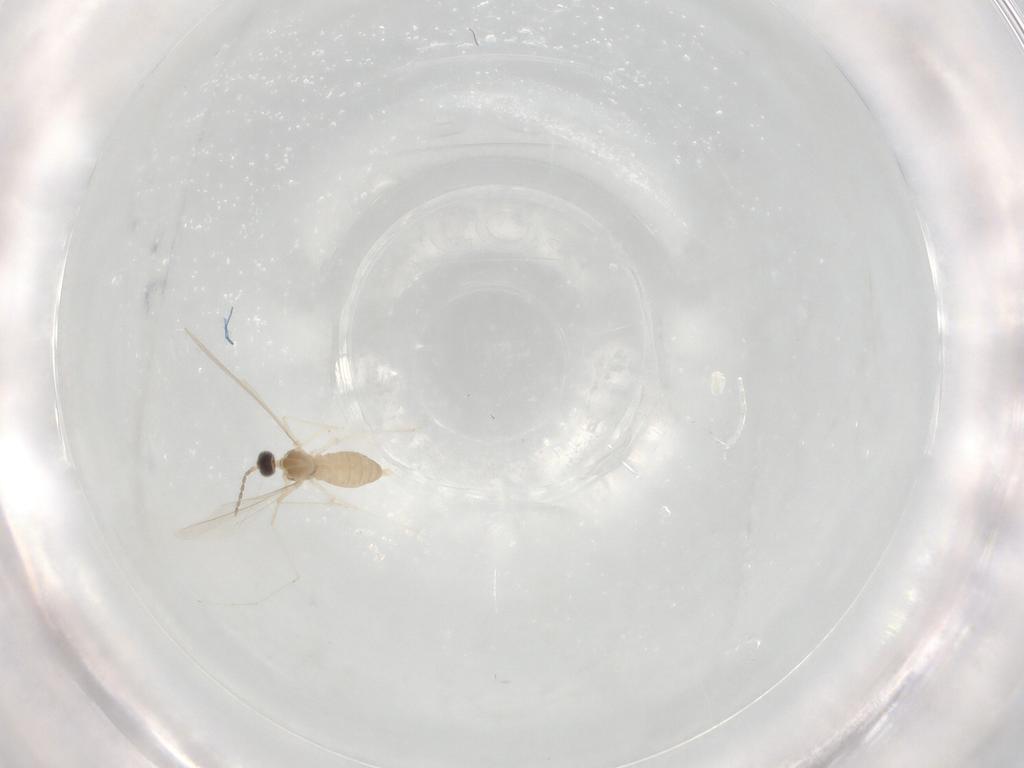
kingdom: Animalia
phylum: Arthropoda
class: Insecta
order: Diptera
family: Cecidomyiidae
